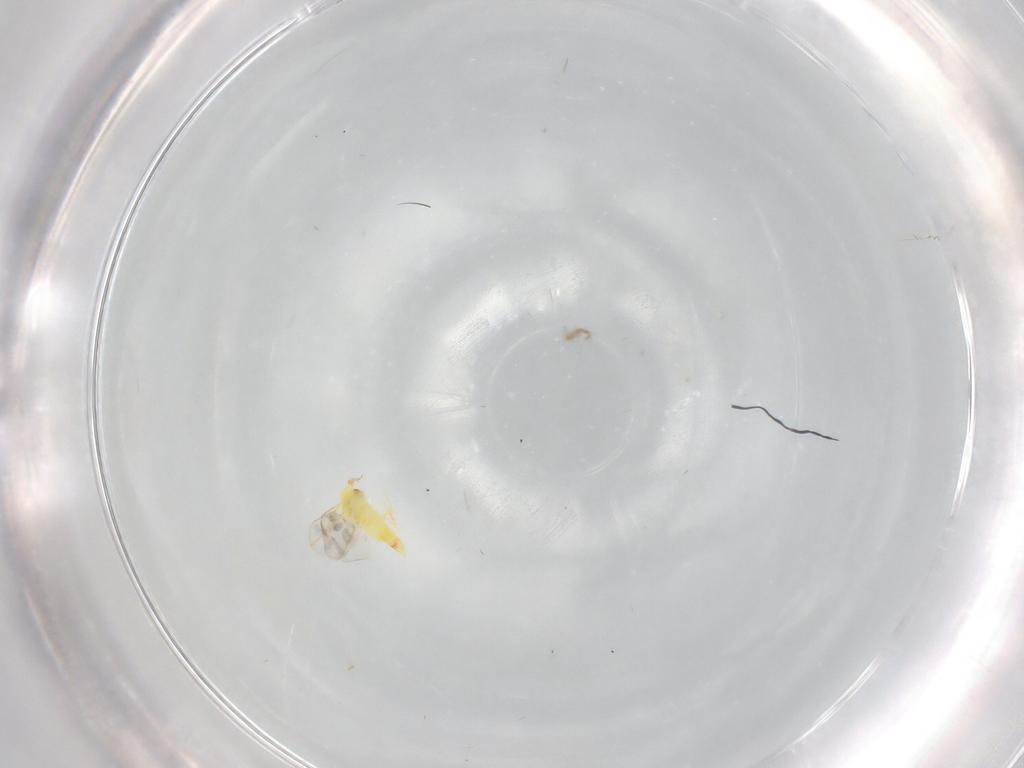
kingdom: Animalia
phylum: Arthropoda
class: Insecta
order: Hemiptera
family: Aleyrodidae
